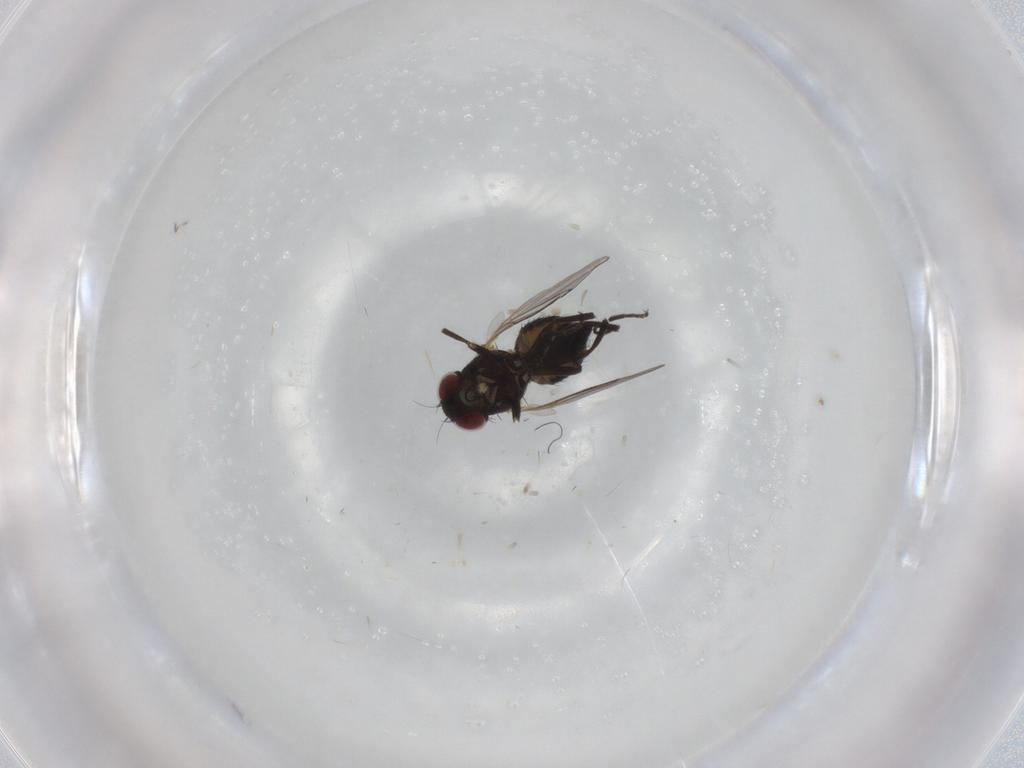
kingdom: Animalia
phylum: Arthropoda
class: Insecta
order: Diptera
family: Ceratopogonidae
